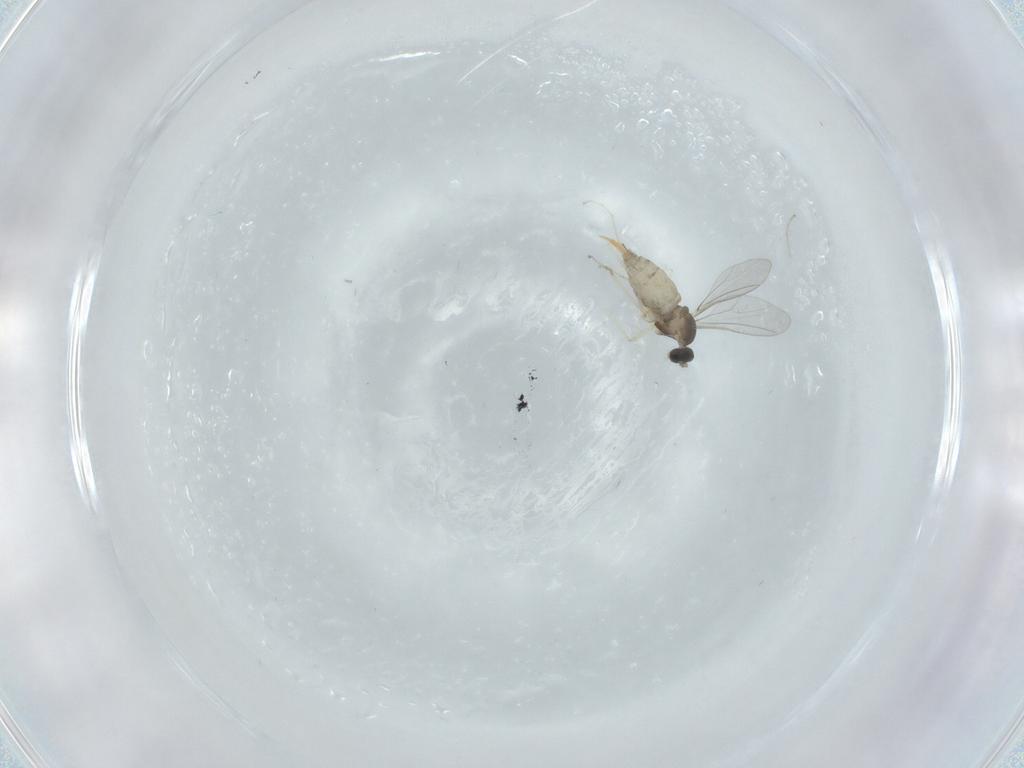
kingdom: Animalia
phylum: Arthropoda
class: Insecta
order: Diptera
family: Cecidomyiidae
